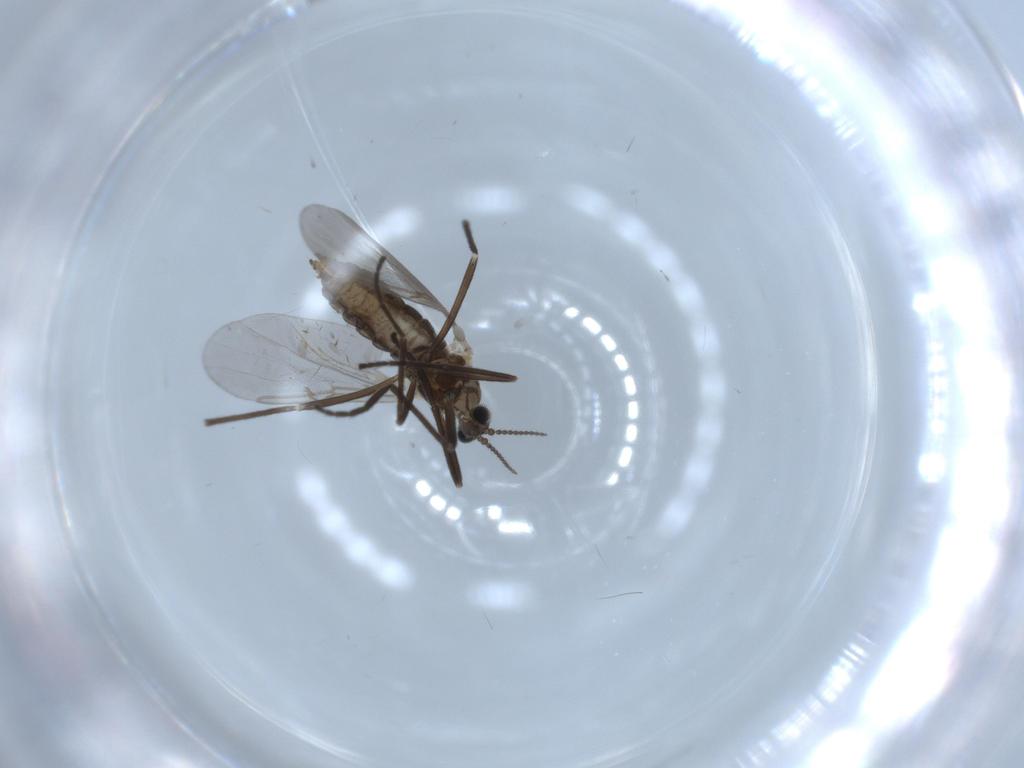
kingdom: Animalia
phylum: Arthropoda
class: Insecta
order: Diptera
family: Cecidomyiidae
